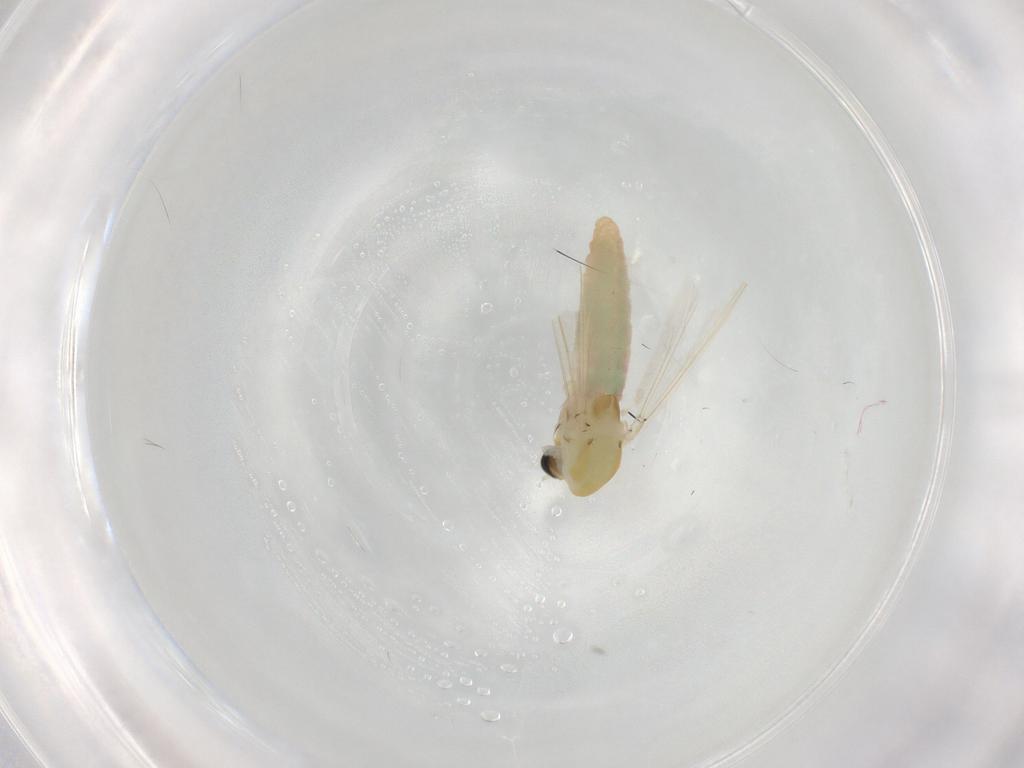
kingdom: Animalia
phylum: Arthropoda
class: Insecta
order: Diptera
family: Chironomidae
